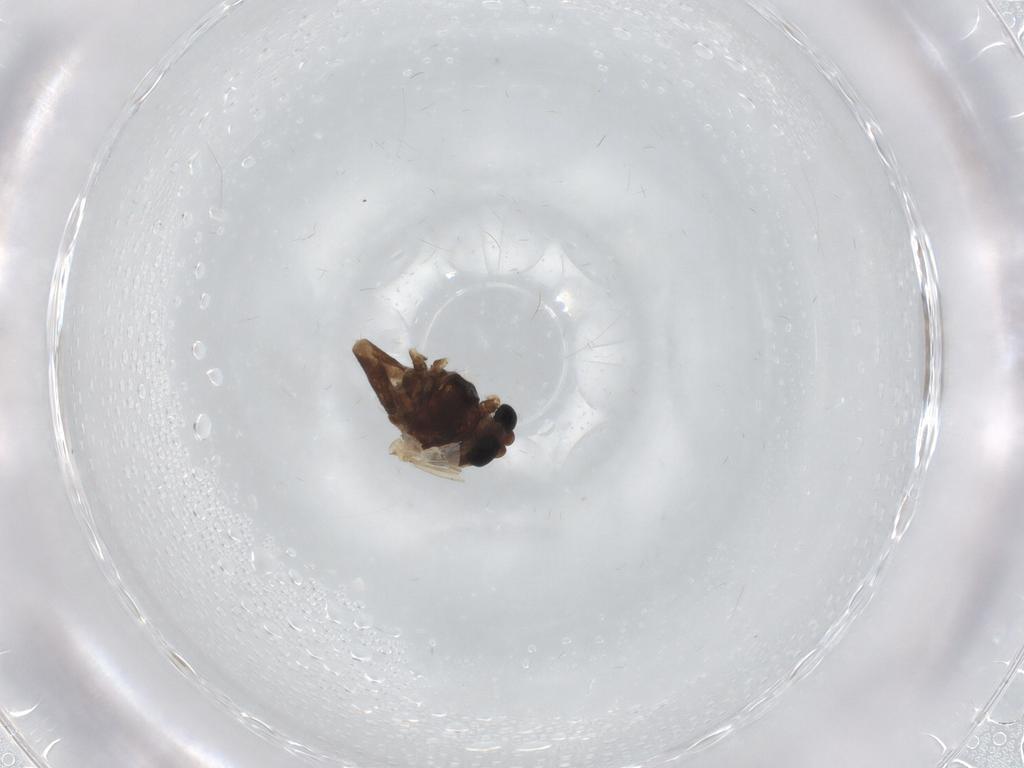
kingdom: Animalia
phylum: Arthropoda
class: Insecta
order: Diptera
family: Chironomidae
